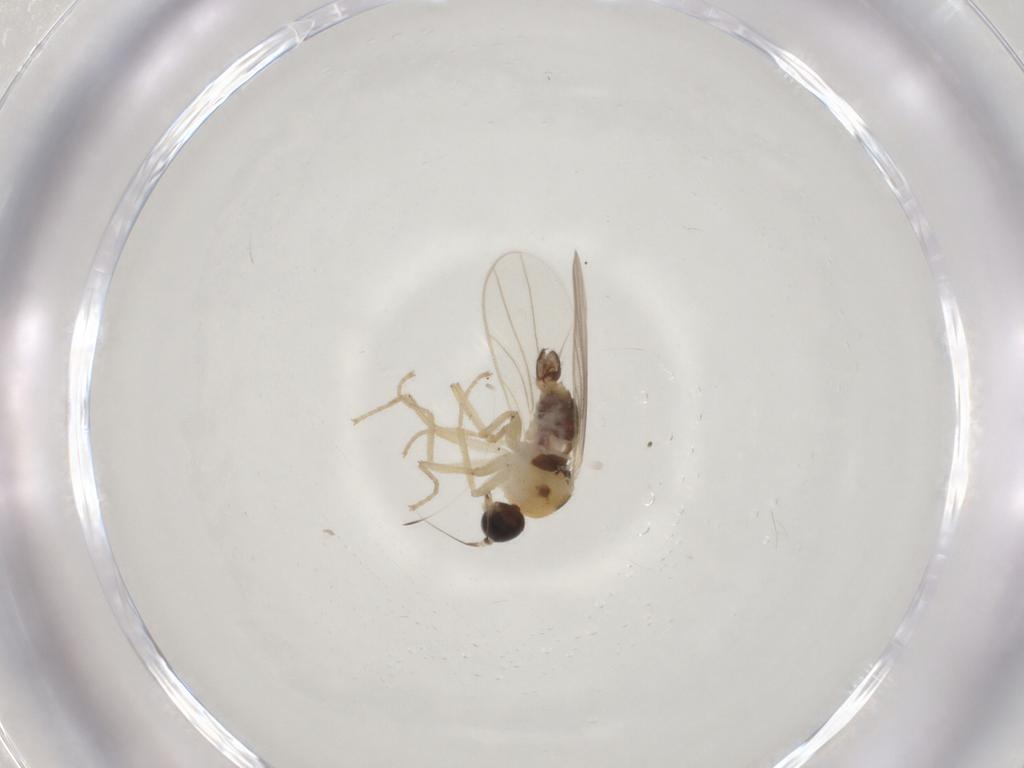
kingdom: Animalia
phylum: Arthropoda
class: Insecta
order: Diptera
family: Hybotidae
